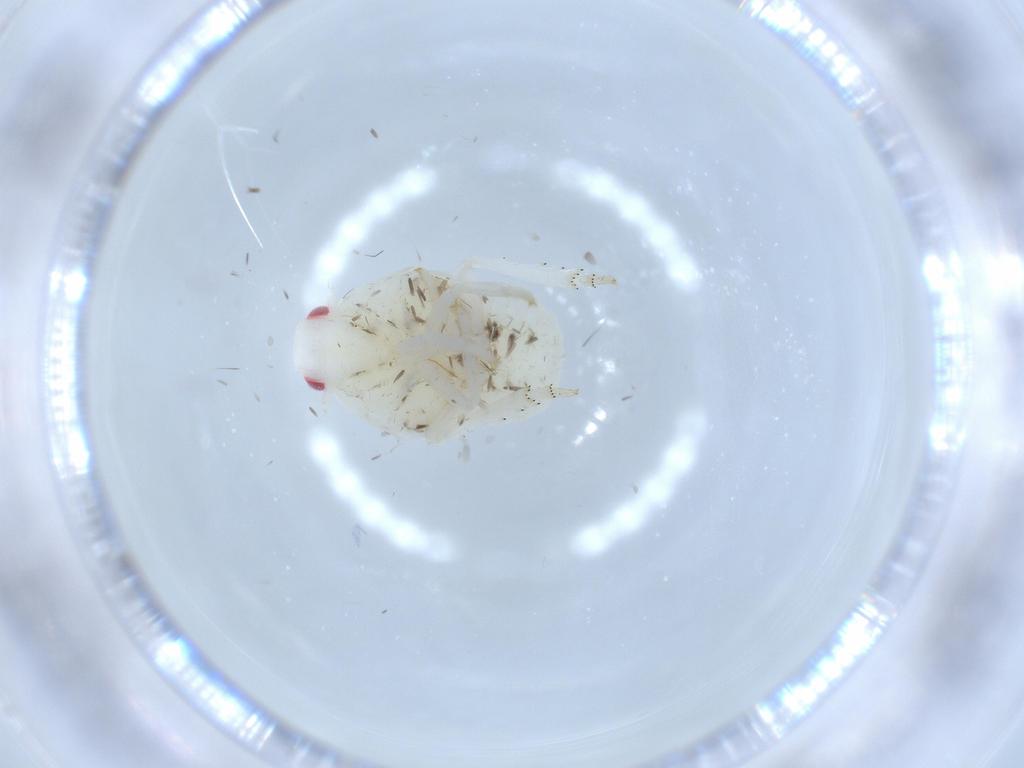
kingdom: Animalia
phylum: Arthropoda
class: Insecta
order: Hemiptera
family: Flatidae
